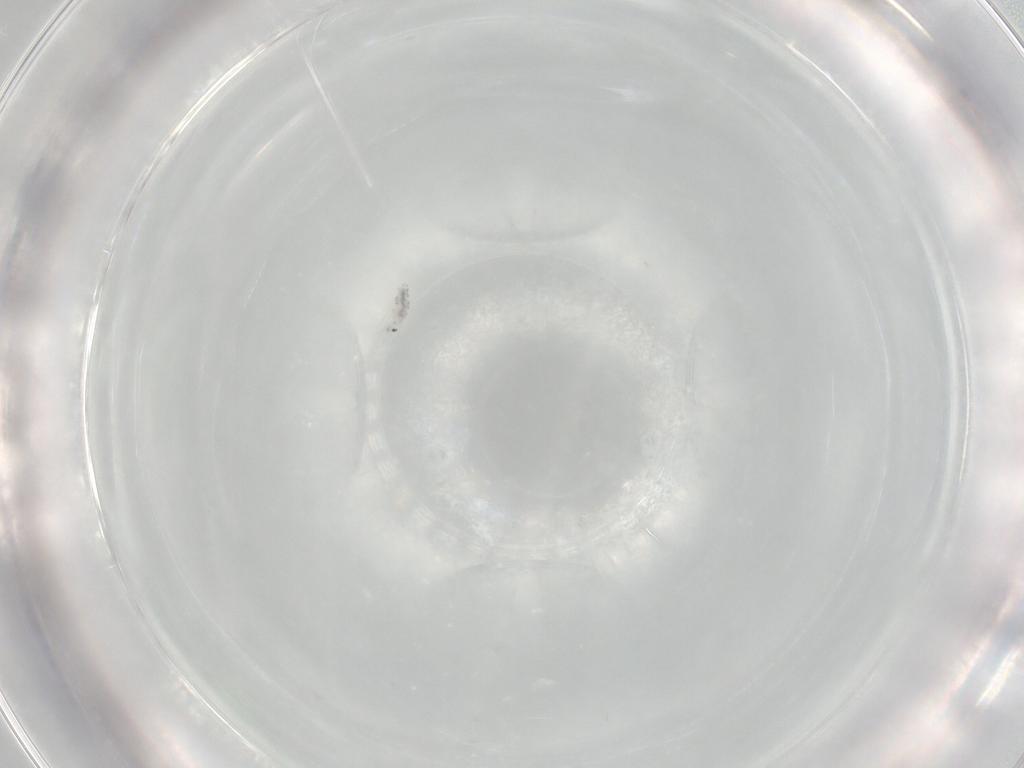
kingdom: Animalia
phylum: Arthropoda
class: Collembola
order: Entomobryomorpha
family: Entomobryidae
